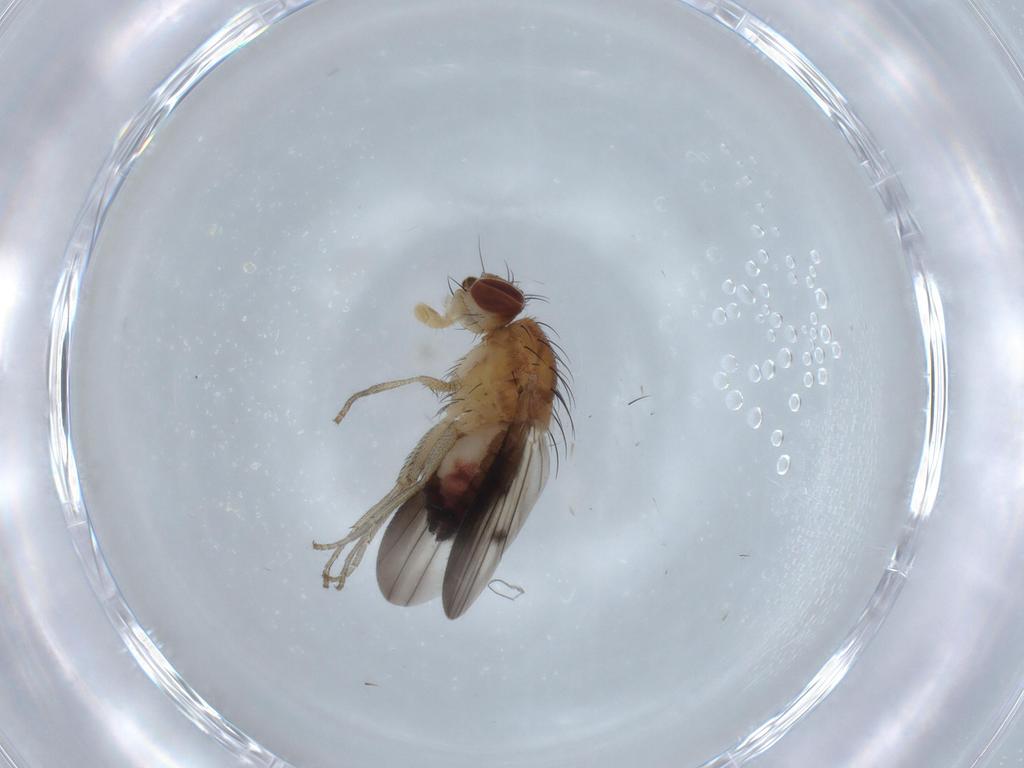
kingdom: Animalia
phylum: Arthropoda
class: Insecta
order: Diptera
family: Heleomyzidae
